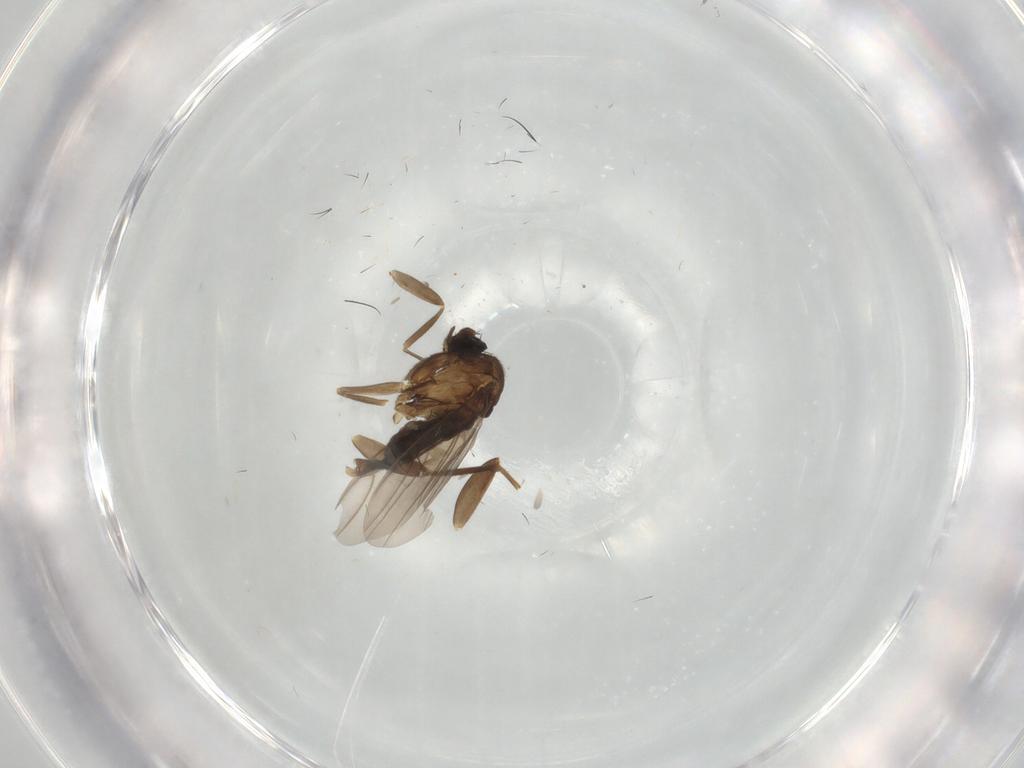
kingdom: Animalia
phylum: Arthropoda
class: Insecta
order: Diptera
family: Tabanidae
